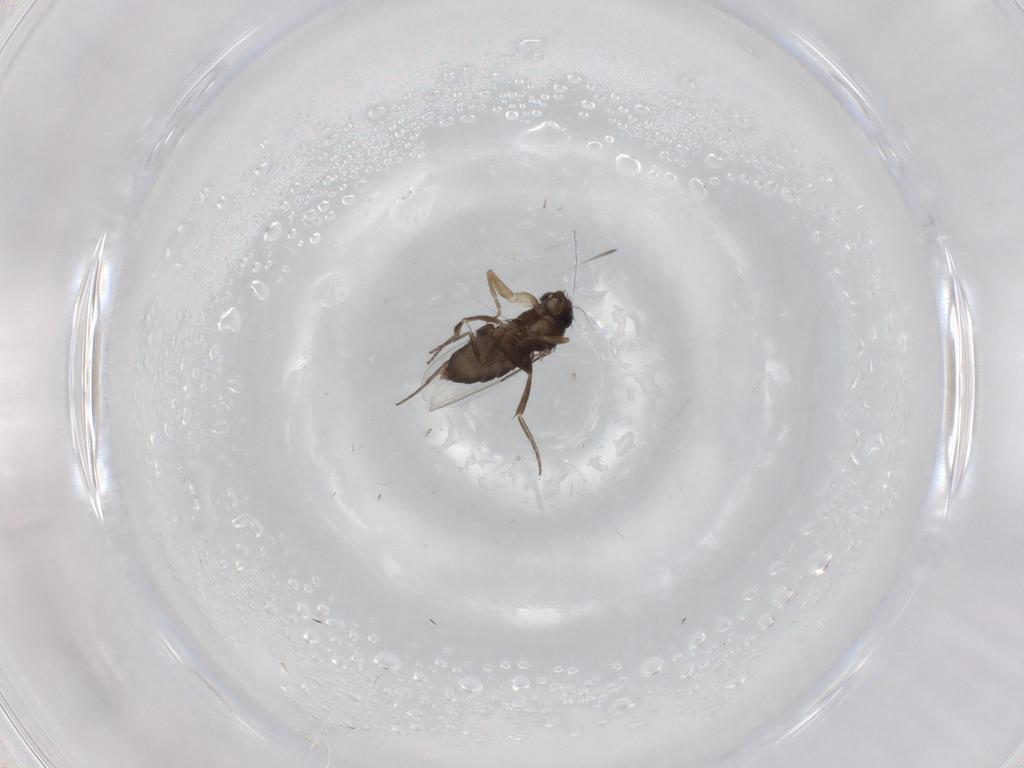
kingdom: Animalia
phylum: Arthropoda
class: Insecta
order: Diptera
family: Phoridae
